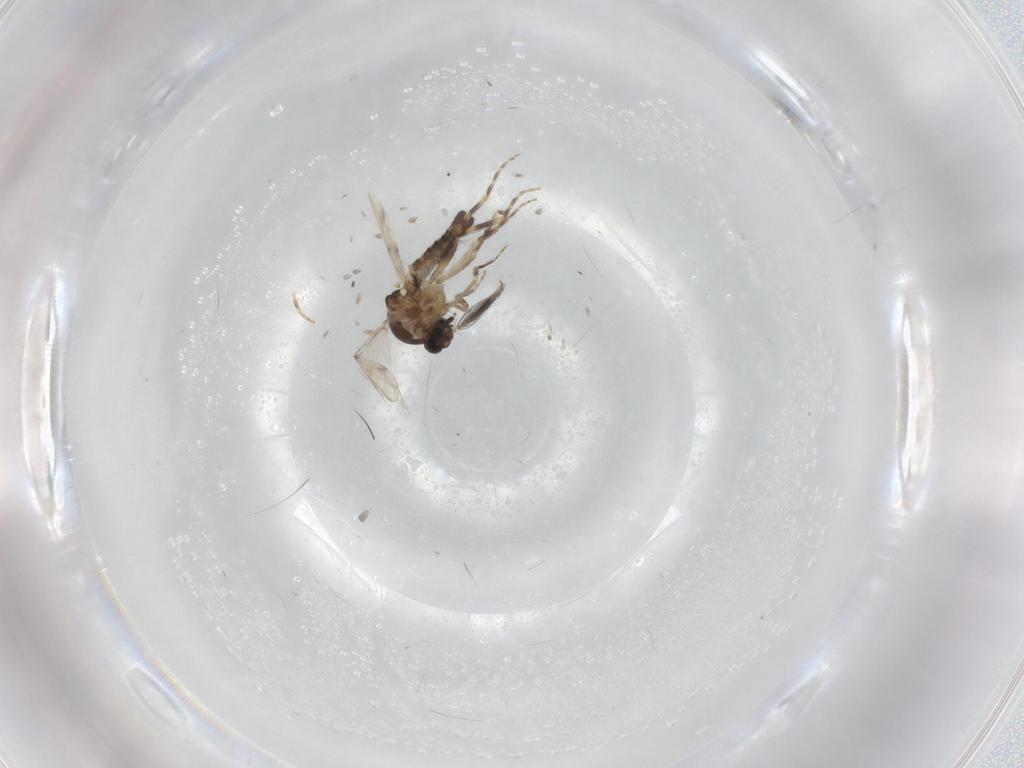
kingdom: Animalia
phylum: Arthropoda
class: Insecta
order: Diptera
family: Ceratopogonidae
